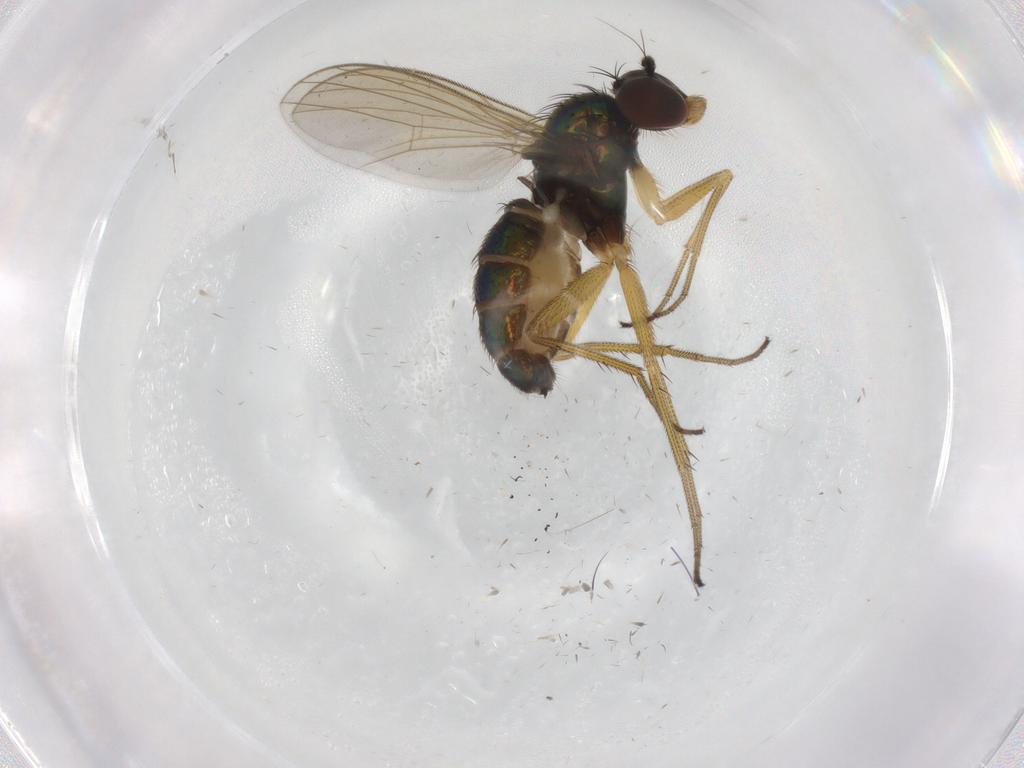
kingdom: Animalia
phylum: Arthropoda
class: Insecta
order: Diptera
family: Dolichopodidae
